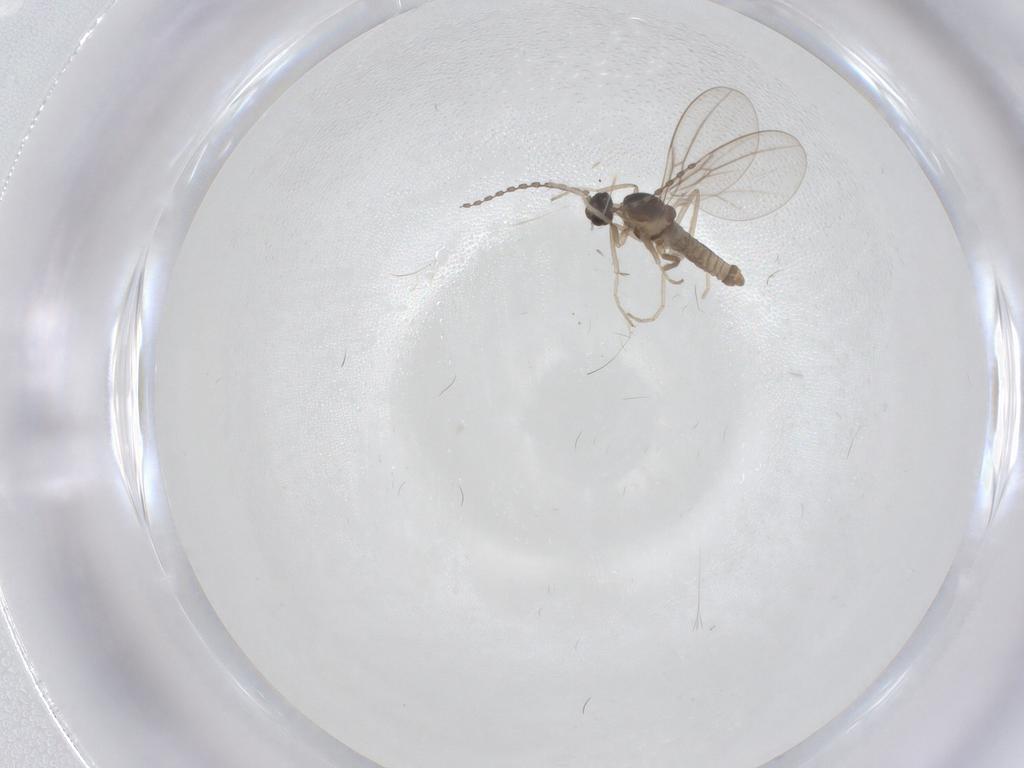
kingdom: Animalia
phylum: Arthropoda
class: Insecta
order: Diptera
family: Cecidomyiidae
